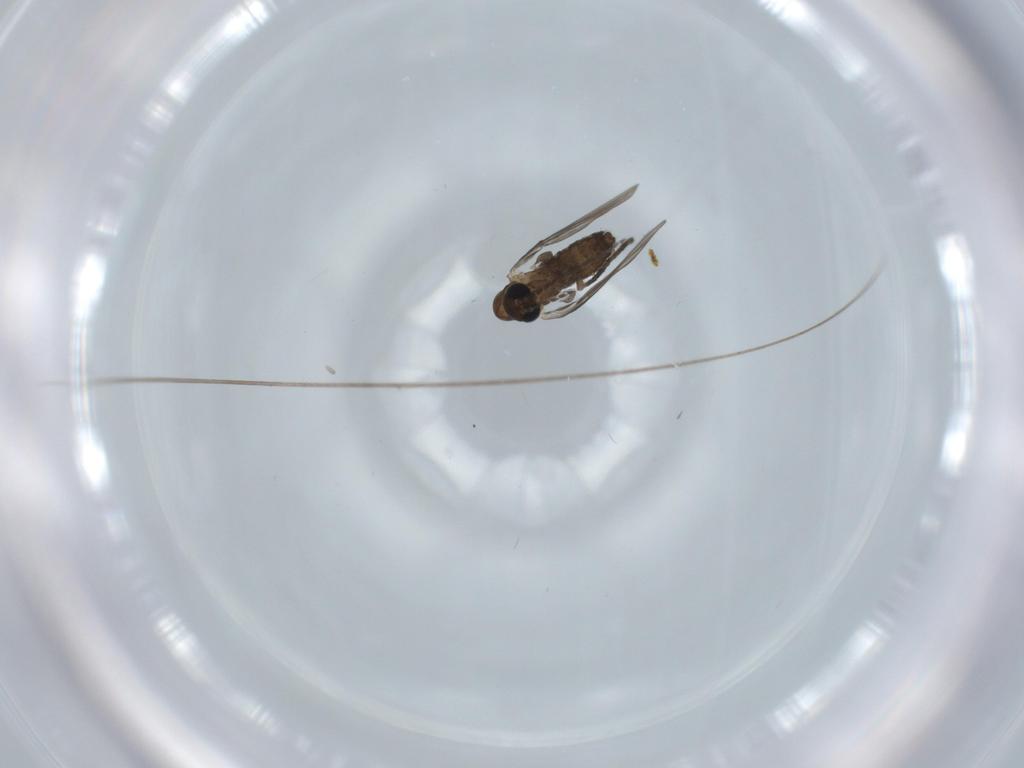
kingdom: Animalia
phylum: Arthropoda
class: Insecta
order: Diptera
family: Psychodidae
